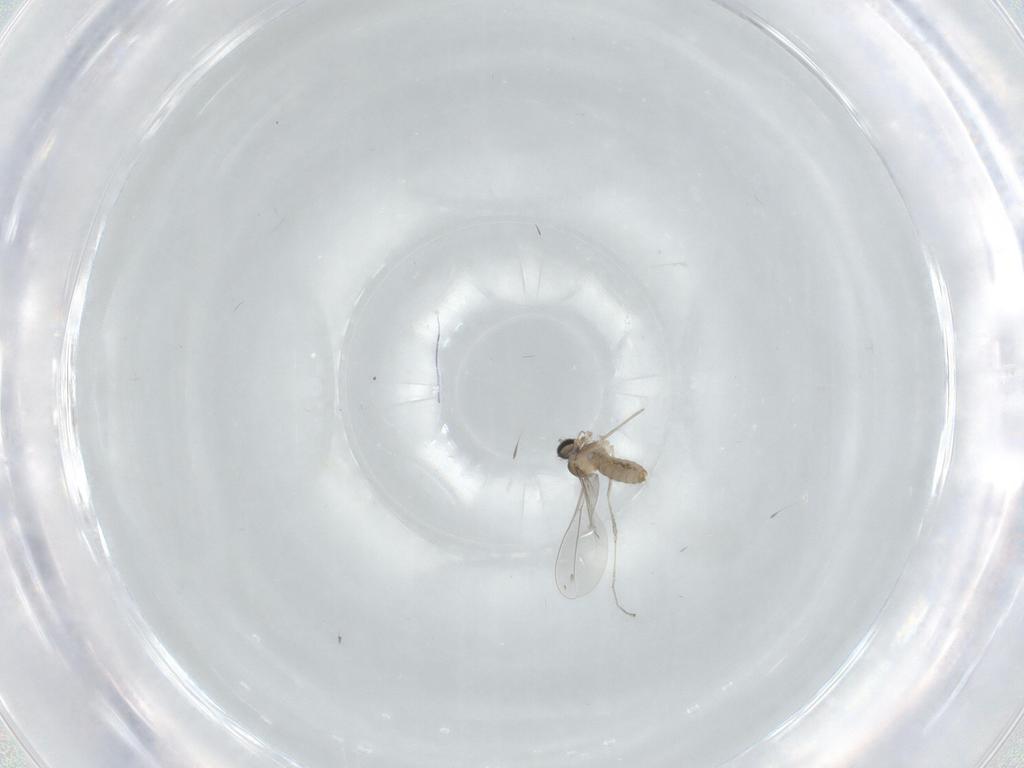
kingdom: Animalia
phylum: Arthropoda
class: Insecta
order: Diptera
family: Cecidomyiidae
